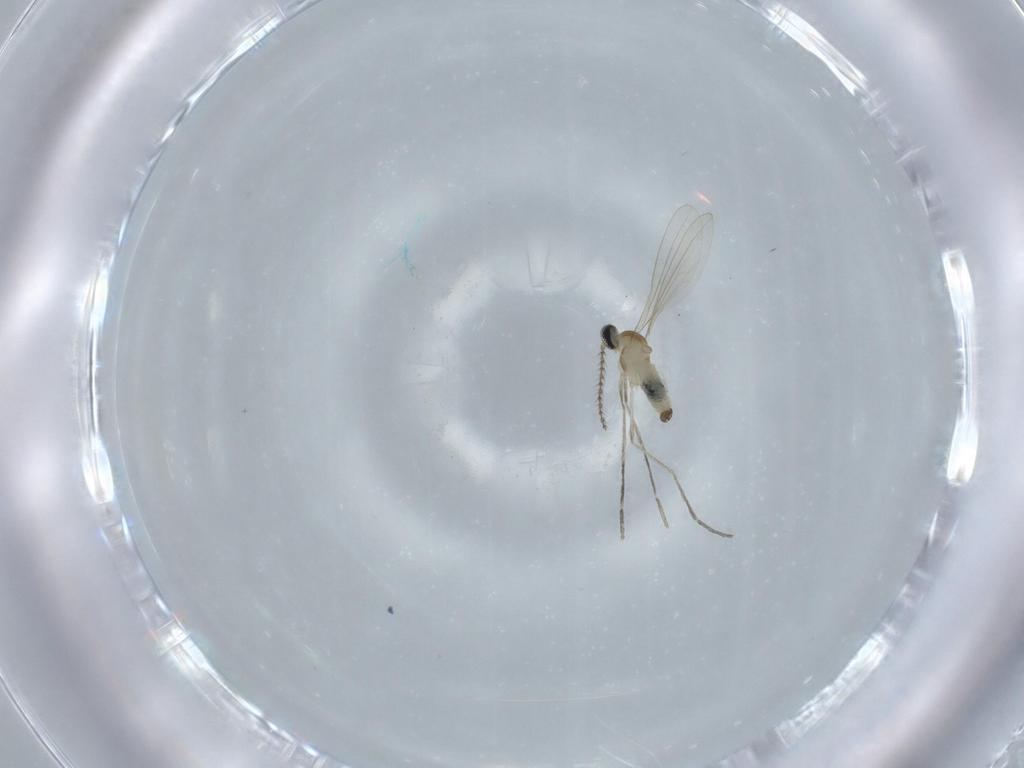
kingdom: Animalia
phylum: Arthropoda
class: Insecta
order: Diptera
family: Cecidomyiidae
